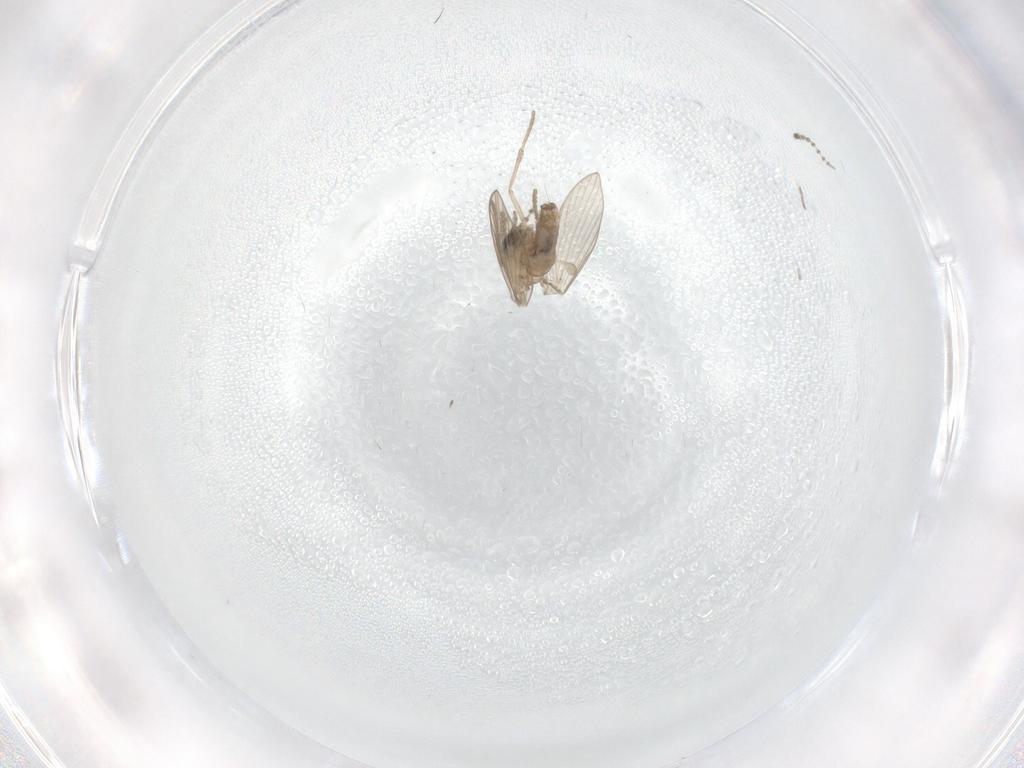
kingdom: Animalia
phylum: Arthropoda
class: Insecta
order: Diptera
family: Psychodidae
